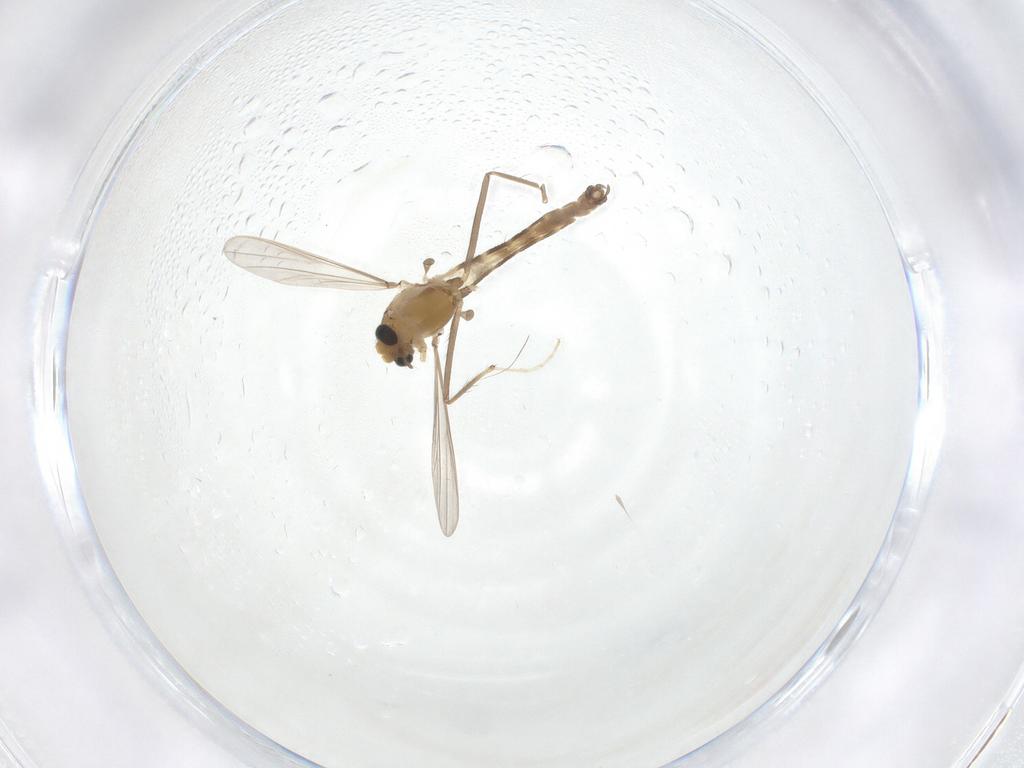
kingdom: Animalia
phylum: Arthropoda
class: Insecta
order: Diptera
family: Chironomidae
